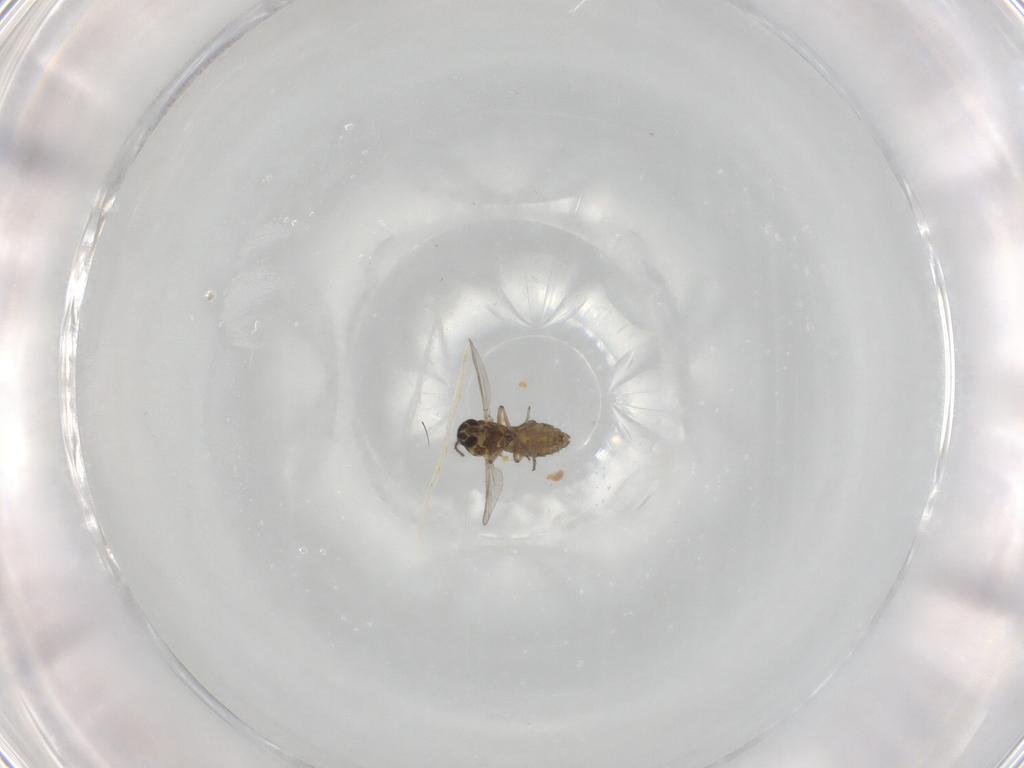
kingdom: Animalia
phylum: Arthropoda
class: Insecta
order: Diptera
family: Ceratopogonidae
